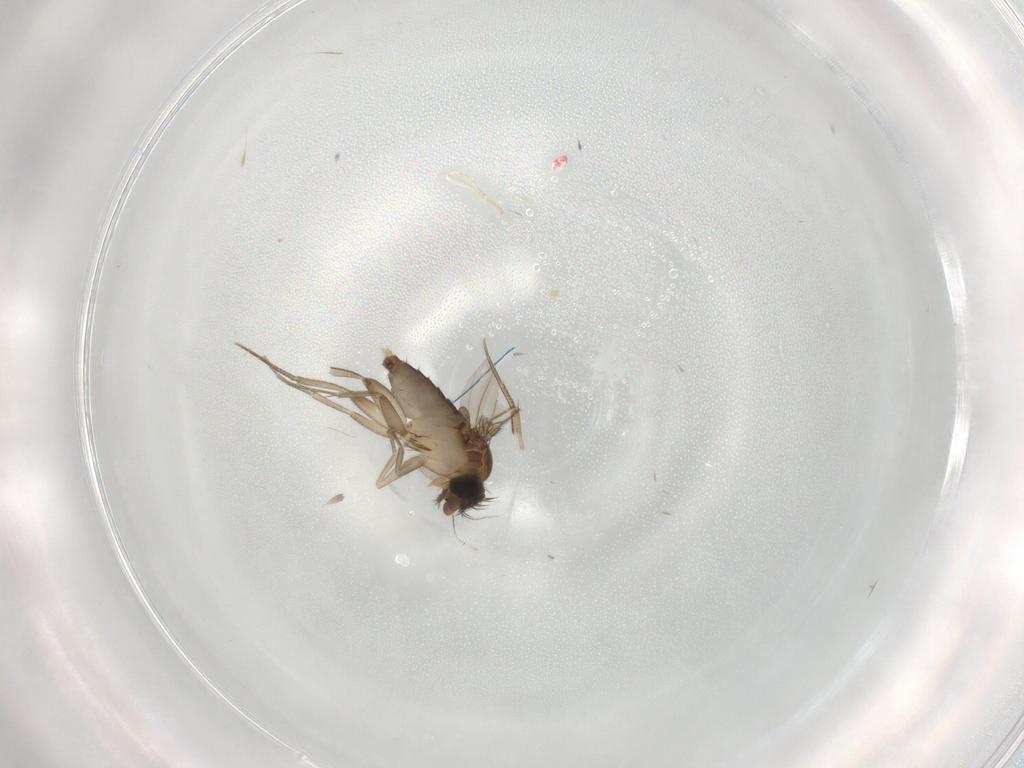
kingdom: Animalia
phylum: Arthropoda
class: Insecta
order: Diptera
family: Phoridae
